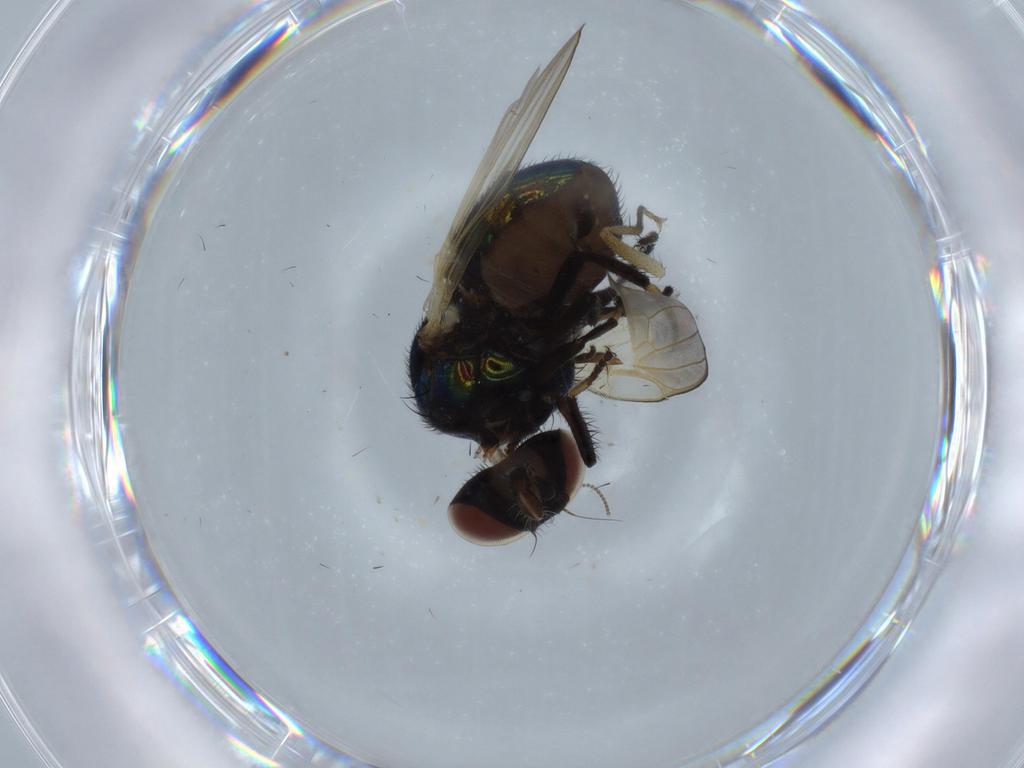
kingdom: Animalia
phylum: Arthropoda
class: Insecta
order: Diptera
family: Lonchaeidae
